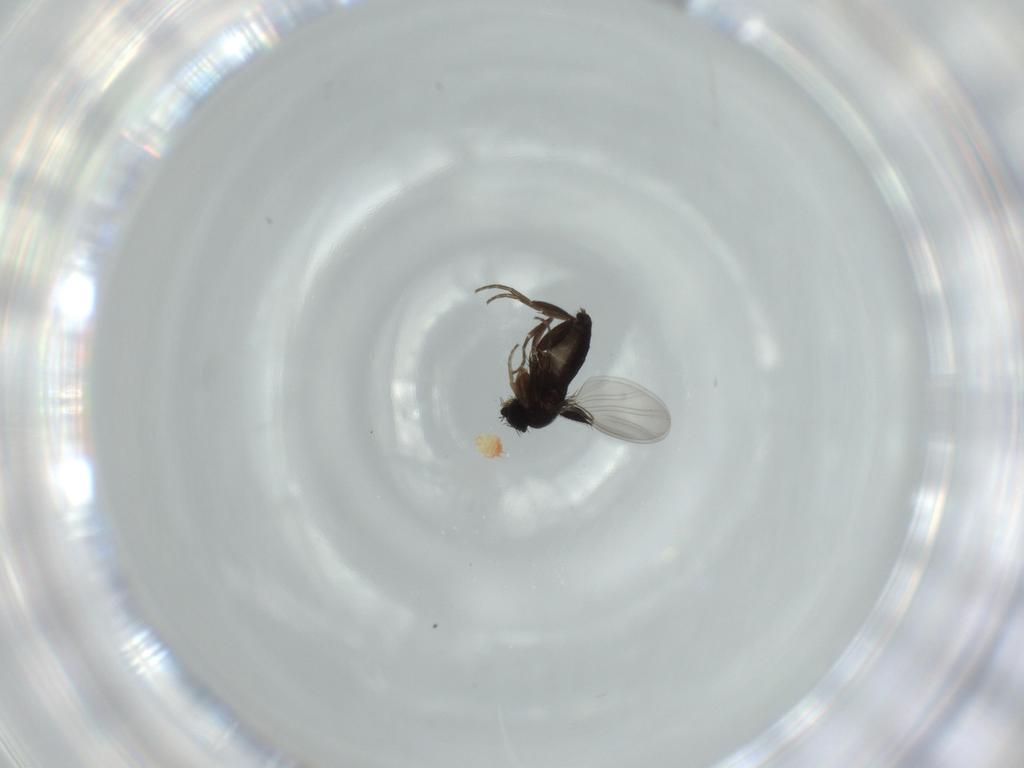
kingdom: Animalia
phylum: Arthropoda
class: Insecta
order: Diptera
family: Phoridae
